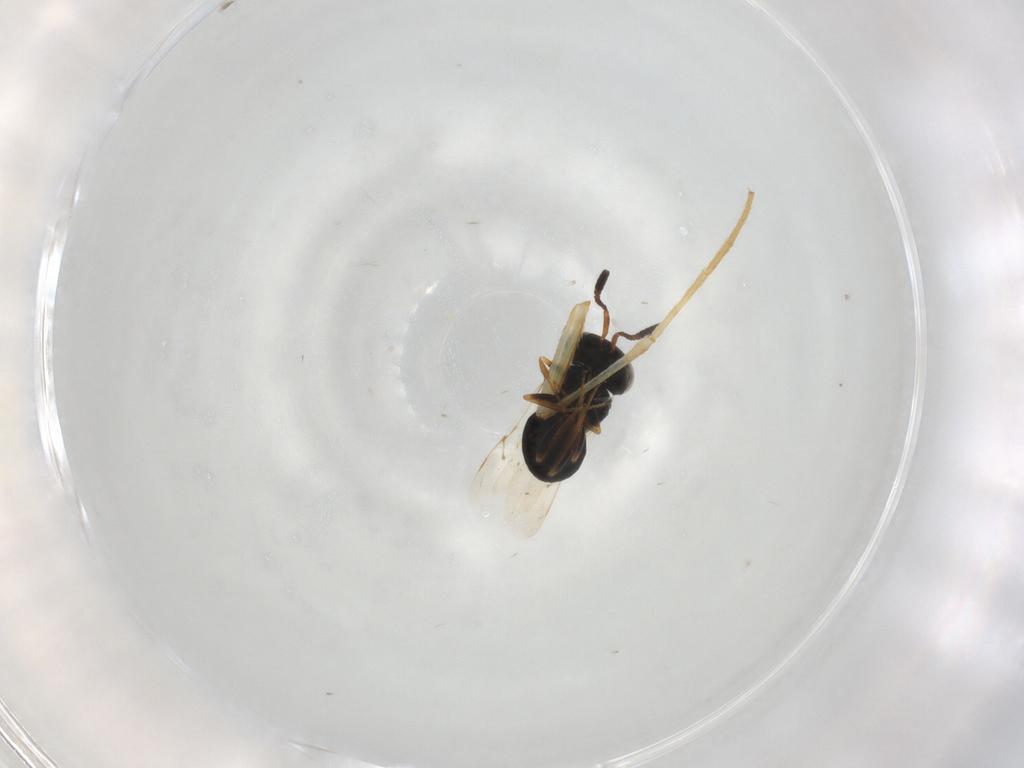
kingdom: Animalia
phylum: Arthropoda
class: Insecta
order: Coleoptera
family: Curculionidae
